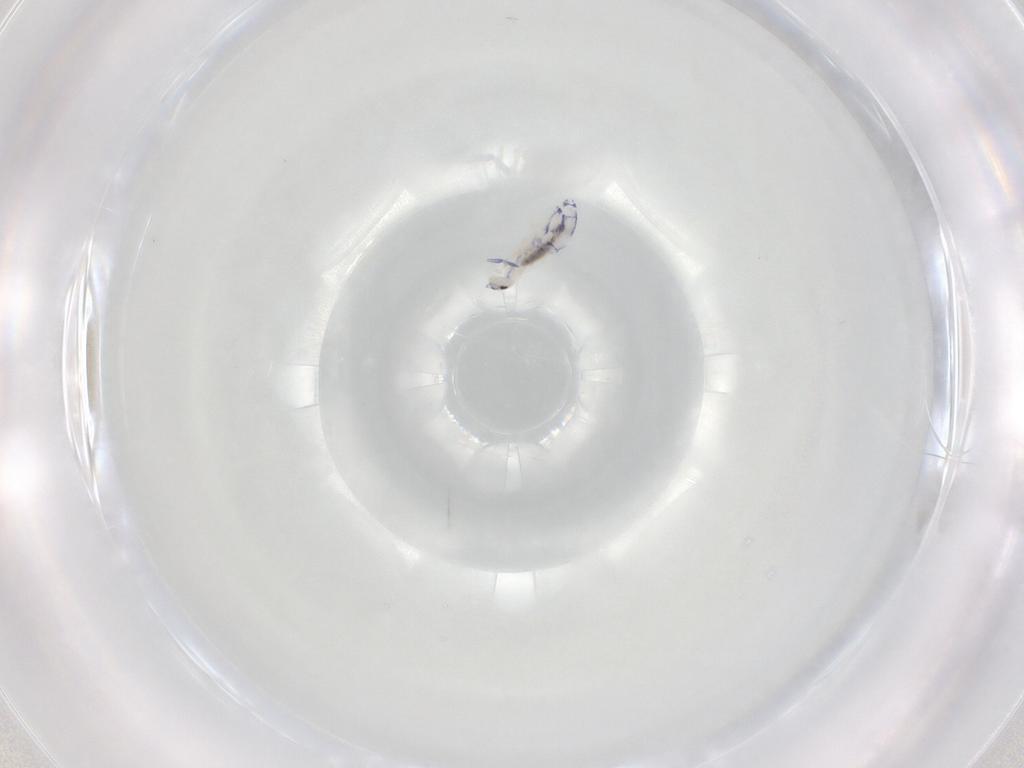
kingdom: Animalia
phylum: Arthropoda
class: Collembola
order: Entomobryomorpha
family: Entomobryidae
